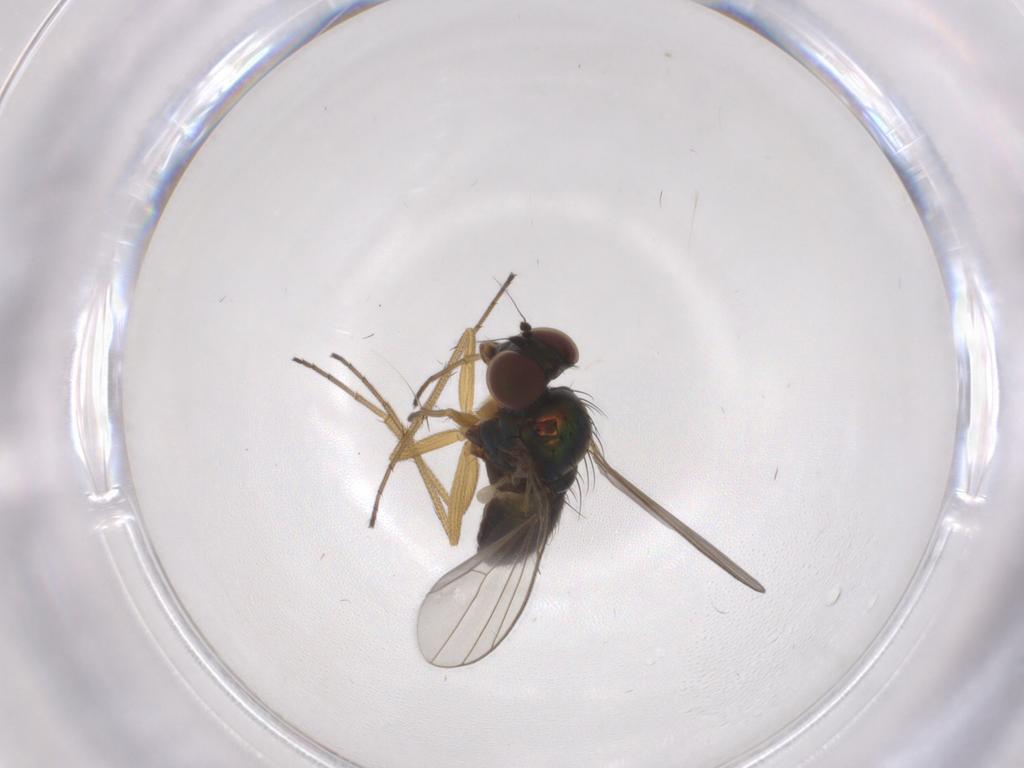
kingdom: Animalia
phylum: Arthropoda
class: Insecta
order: Diptera
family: Dolichopodidae
